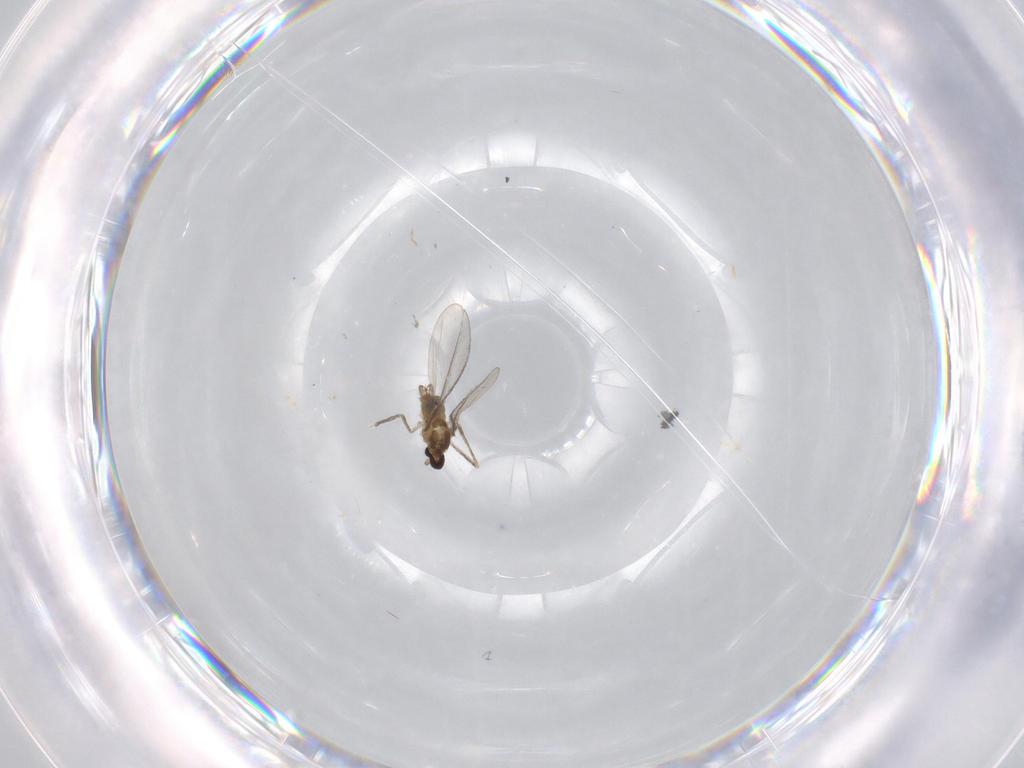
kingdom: Animalia
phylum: Arthropoda
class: Insecta
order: Diptera
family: Cecidomyiidae
